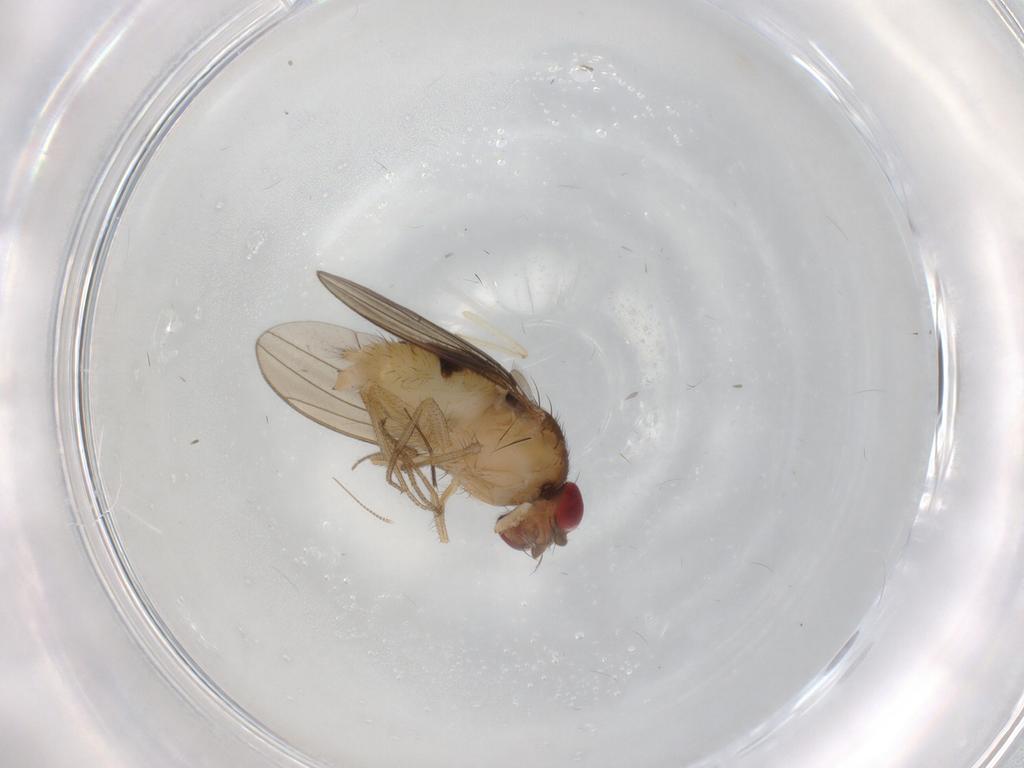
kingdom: Animalia
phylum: Arthropoda
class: Insecta
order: Diptera
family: Drosophilidae
